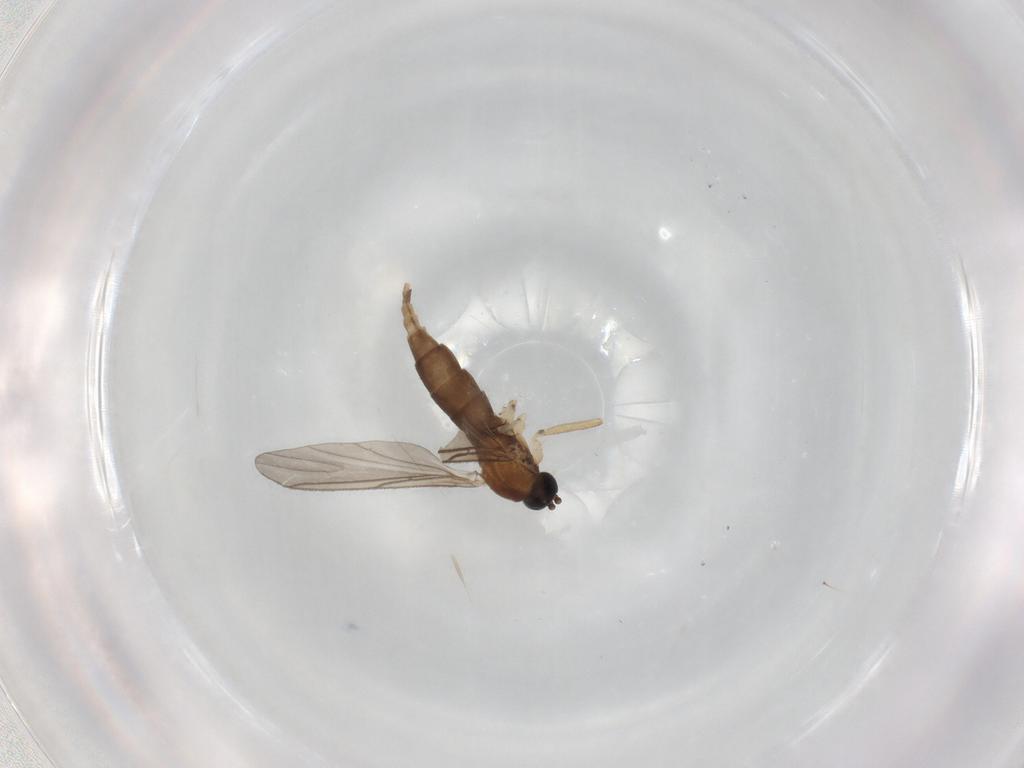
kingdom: Animalia
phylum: Arthropoda
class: Insecta
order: Diptera
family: Sciaridae
